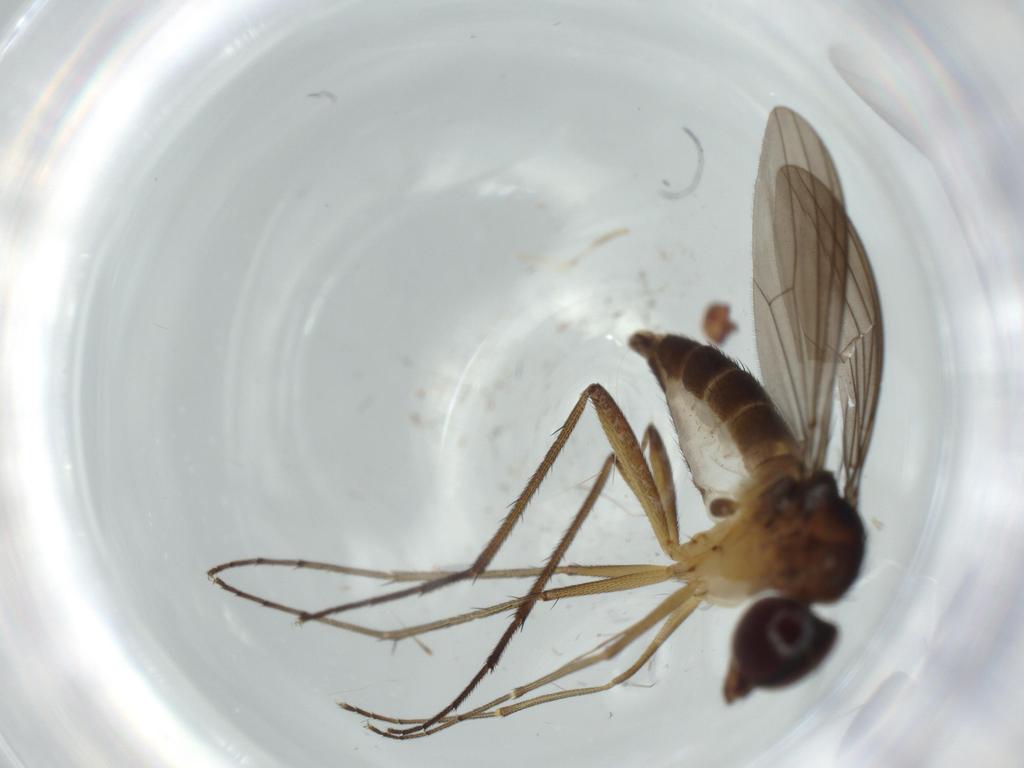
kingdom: Animalia
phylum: Arthropoda
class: Insecta
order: Diptera
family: Dolichopodidae
